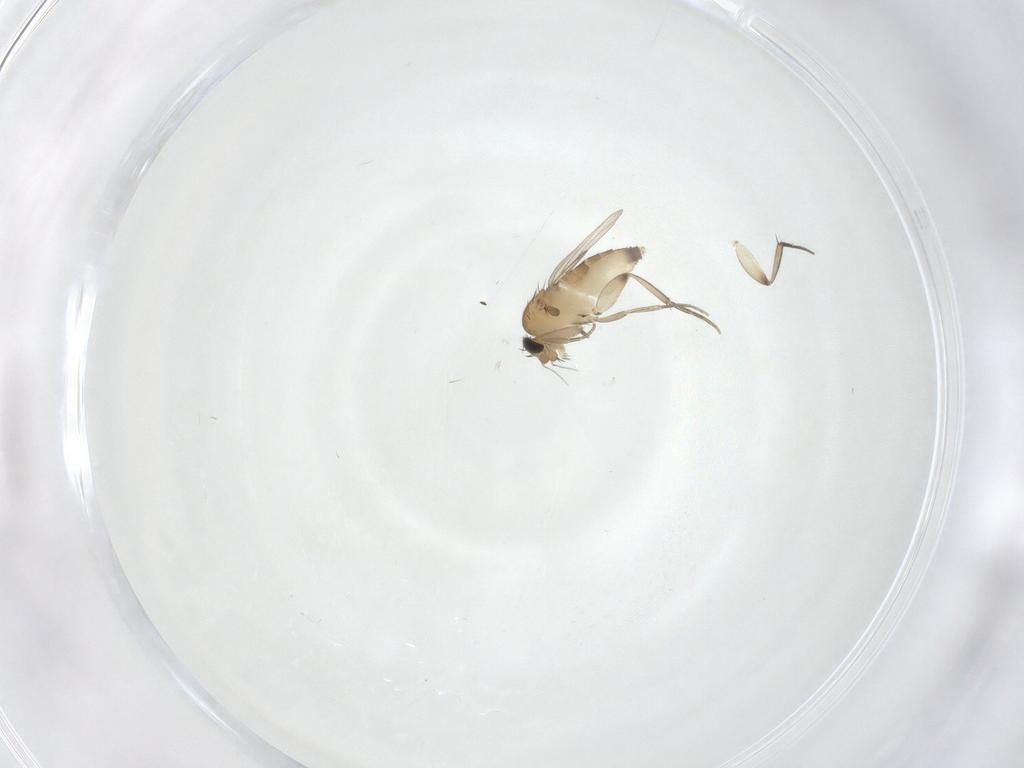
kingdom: Animalia
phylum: Arthropoda
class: Insecta
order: Diptera
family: Phoridae
